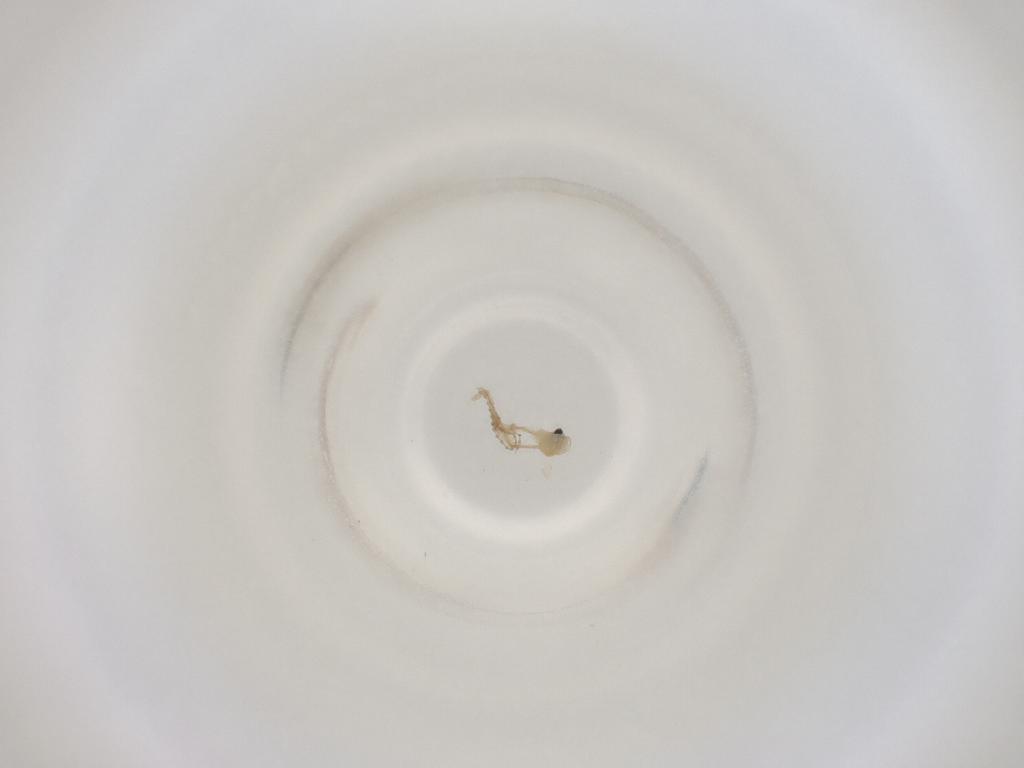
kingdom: Animalia
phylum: Arthropoda
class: Insecta
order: Diptera
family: Cecidomyiidae
